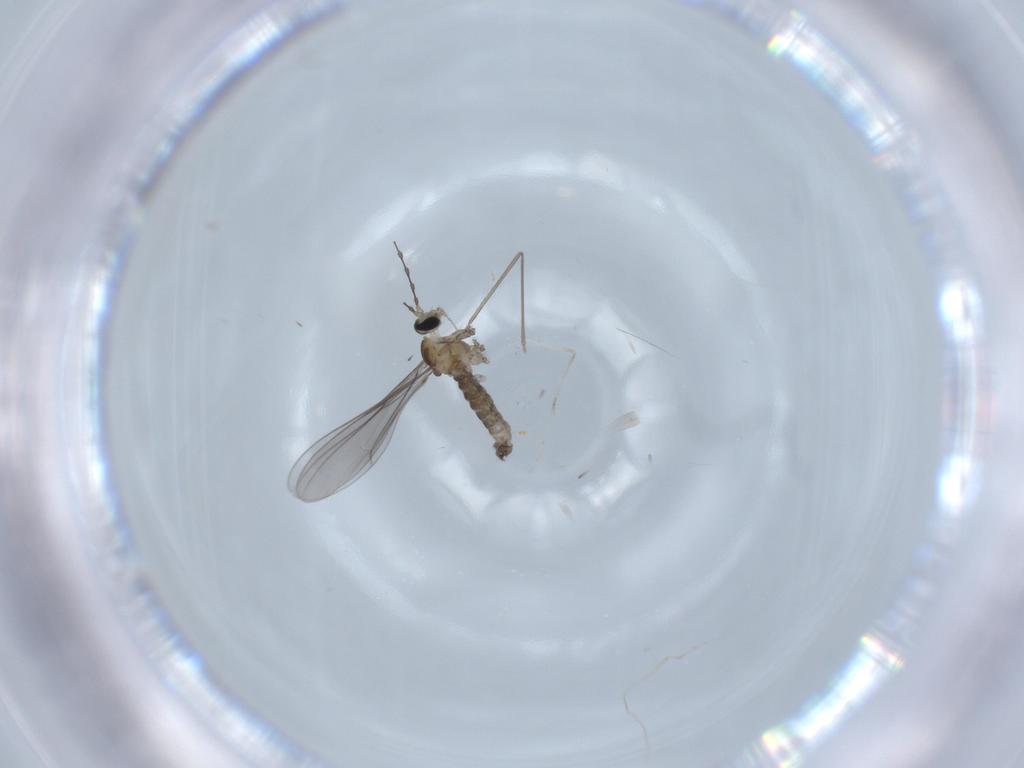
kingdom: Animalia
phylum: Arthropoda
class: Insecta
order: Diptera
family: Cecidomyiidae
